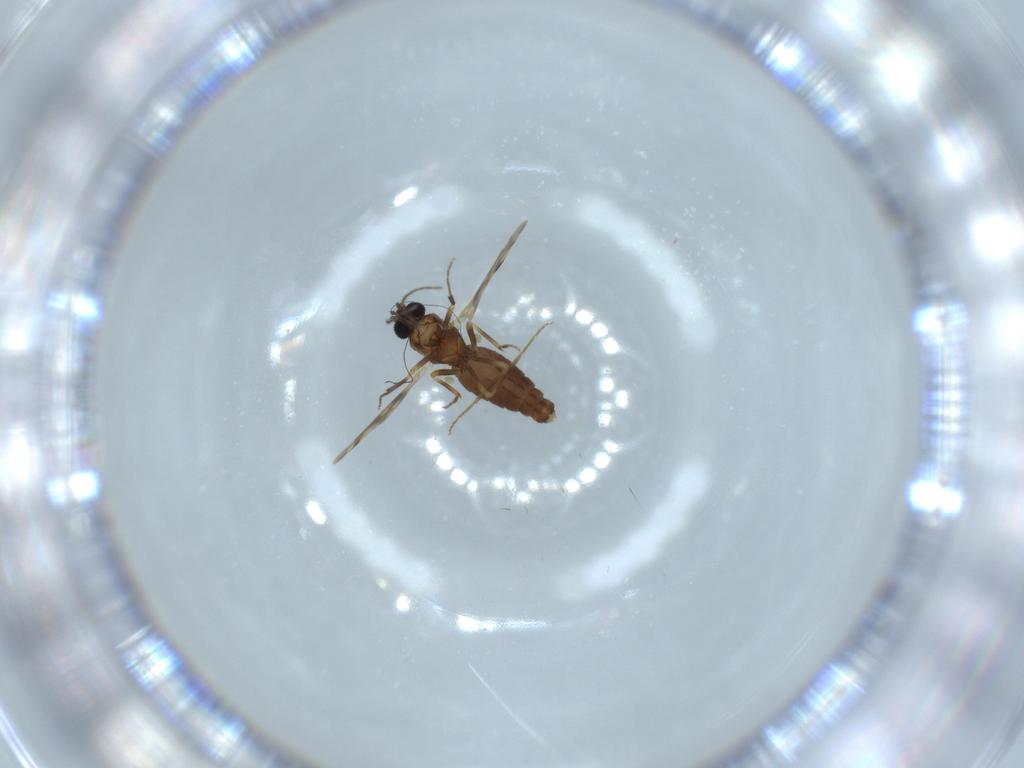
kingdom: Animalia
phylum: Arthropoda
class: Insecta
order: Diptera
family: Ceratopogonidae
